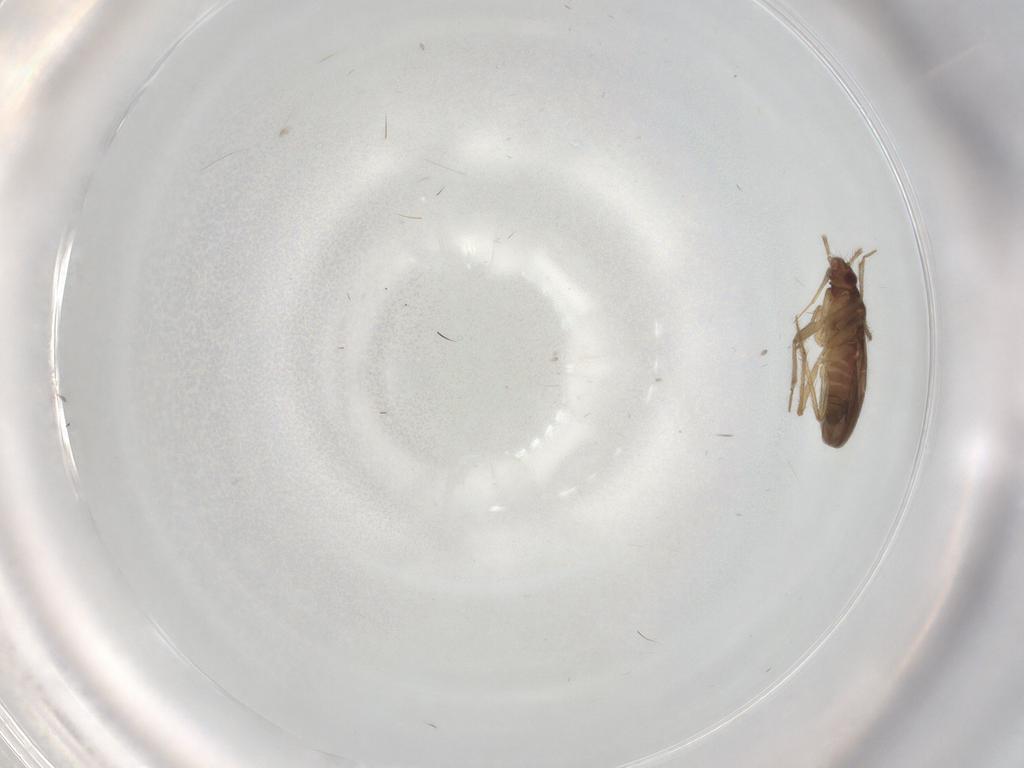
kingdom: Animalia
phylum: Arthropoda
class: Insecta
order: Hemiptera
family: Ceratocombidae
